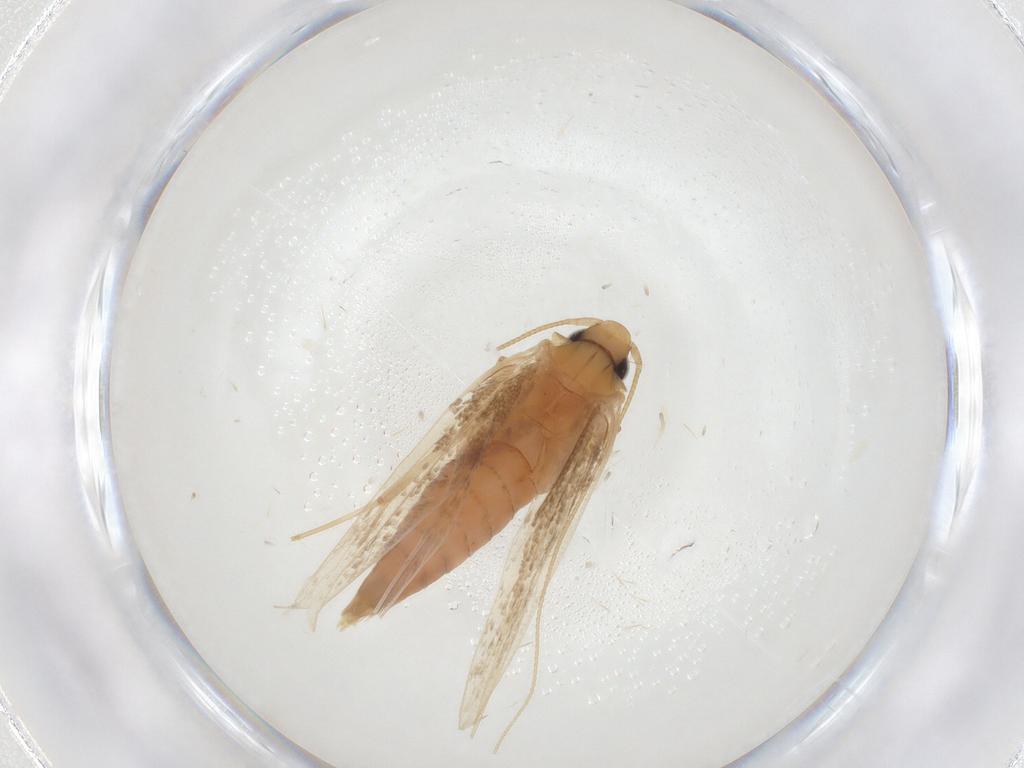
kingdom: Animalia
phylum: Arthropoda
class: Insecta
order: Lepidoptera
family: Tineidae
